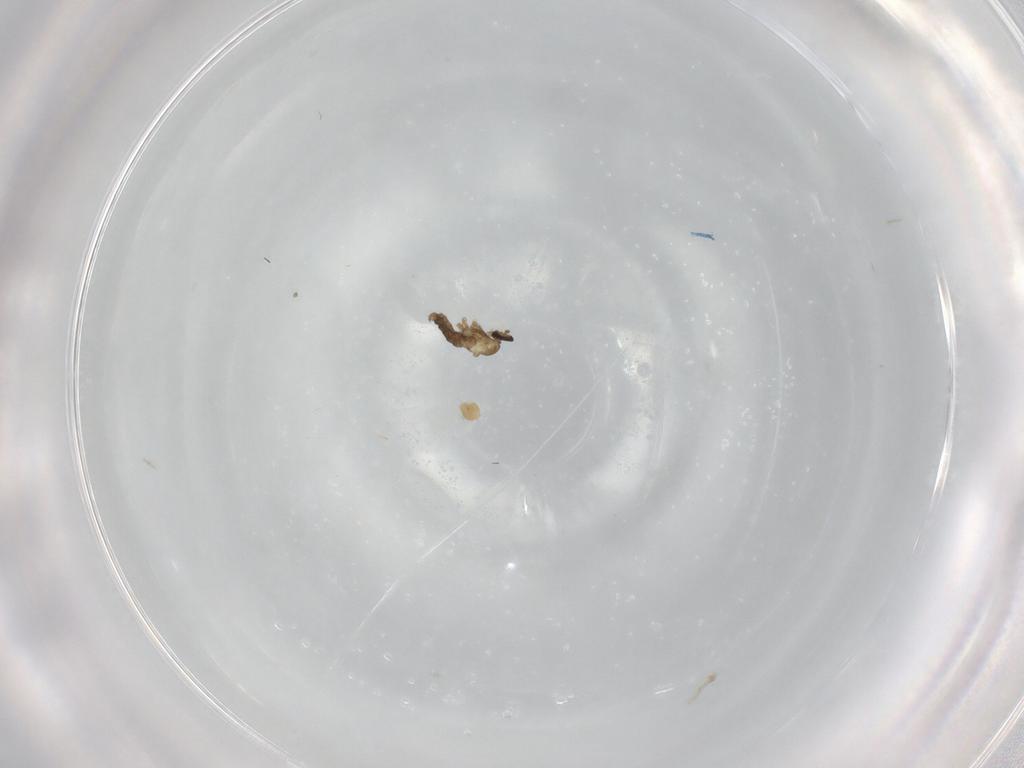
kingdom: Animalia
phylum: Arthropoda
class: Insecta
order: Diptera
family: Cecidomyiidae
